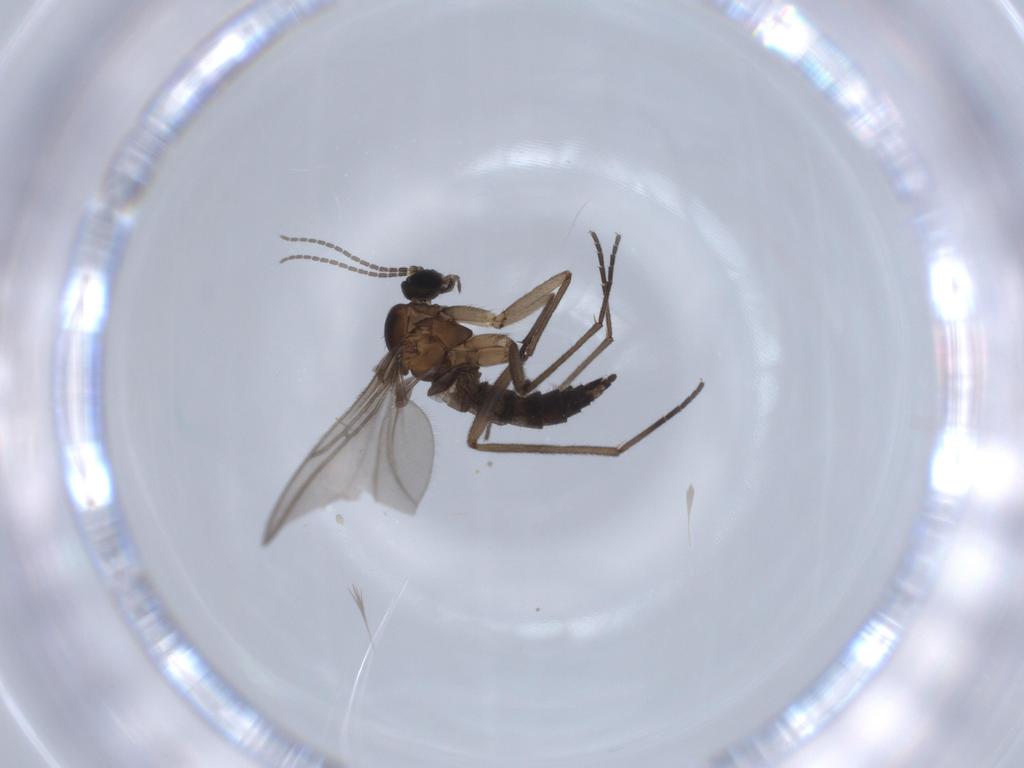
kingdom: Animalia
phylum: Arthropoda
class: Insecta
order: Diptera
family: Sciaridae
